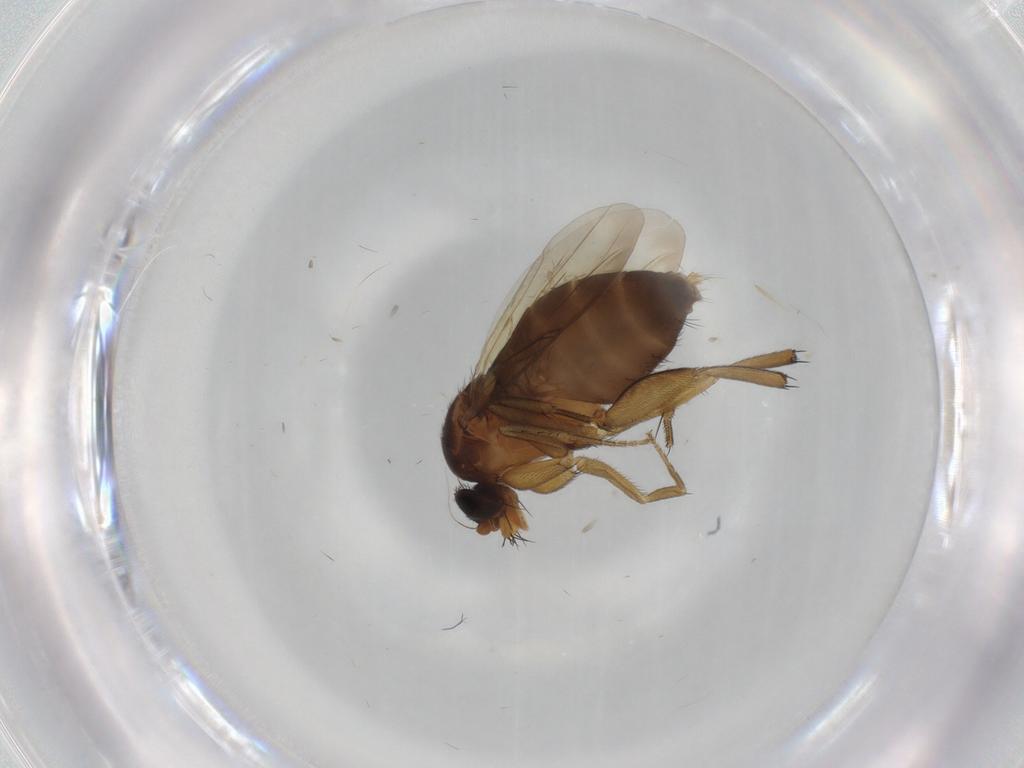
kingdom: Animalia
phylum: Arthropoda
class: Insecta
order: Diptera
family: Phoridae
